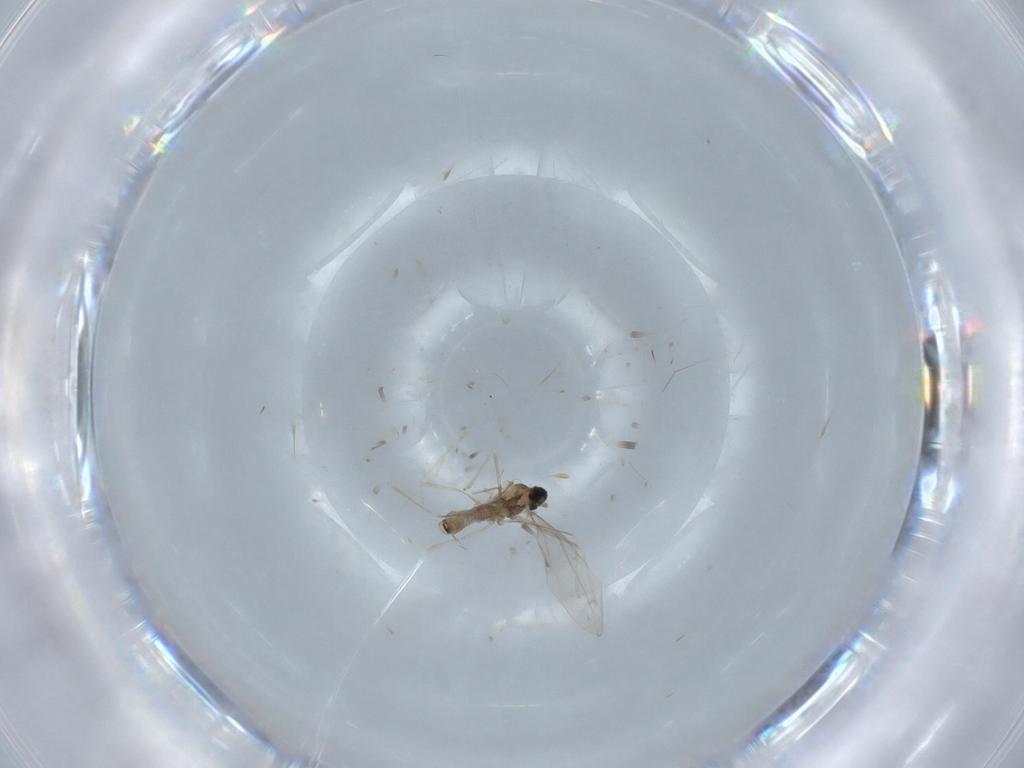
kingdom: Animalia
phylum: Arthropoda
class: Insecta
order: Diptera
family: Cecidomyiidae
